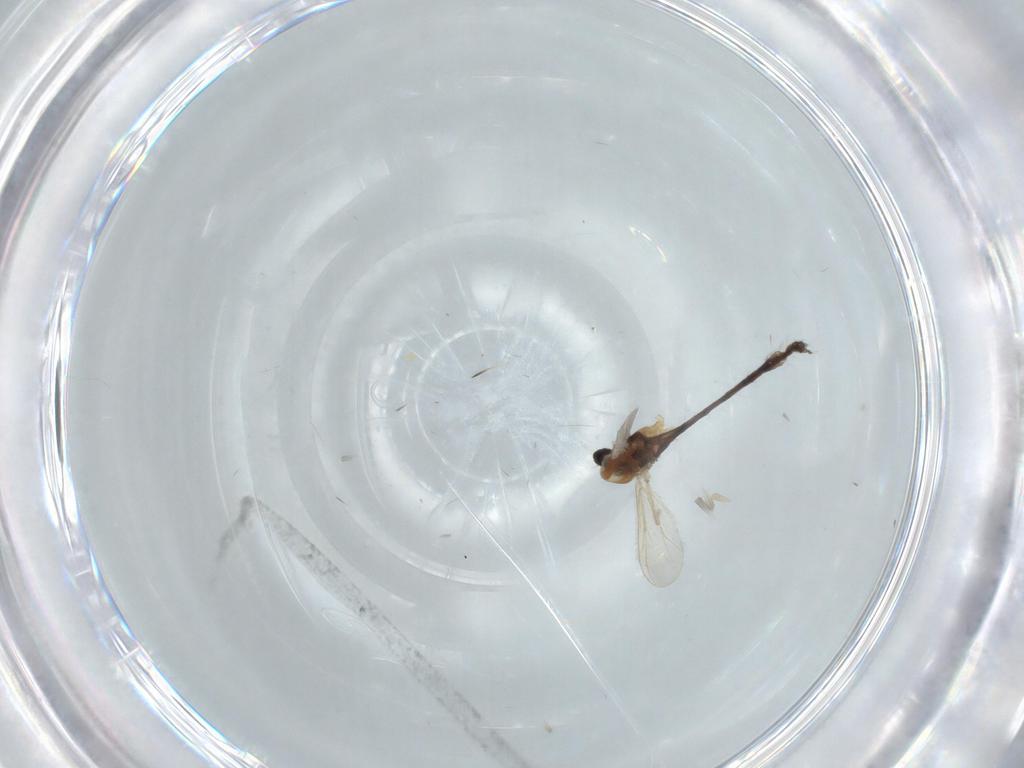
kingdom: Animalia
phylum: Arthropoda
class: Insecta
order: Diptera
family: Chironomidae
